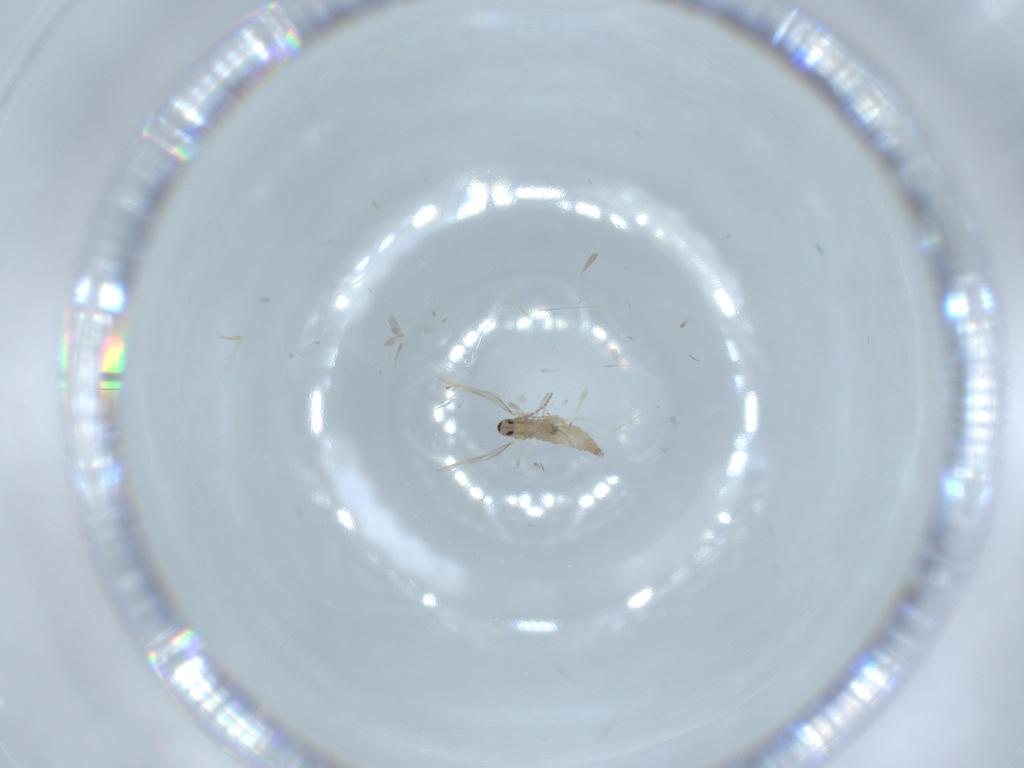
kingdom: Animalia
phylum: Arthropoda
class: Insecta
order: Diptera
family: Cecidomyiidae
